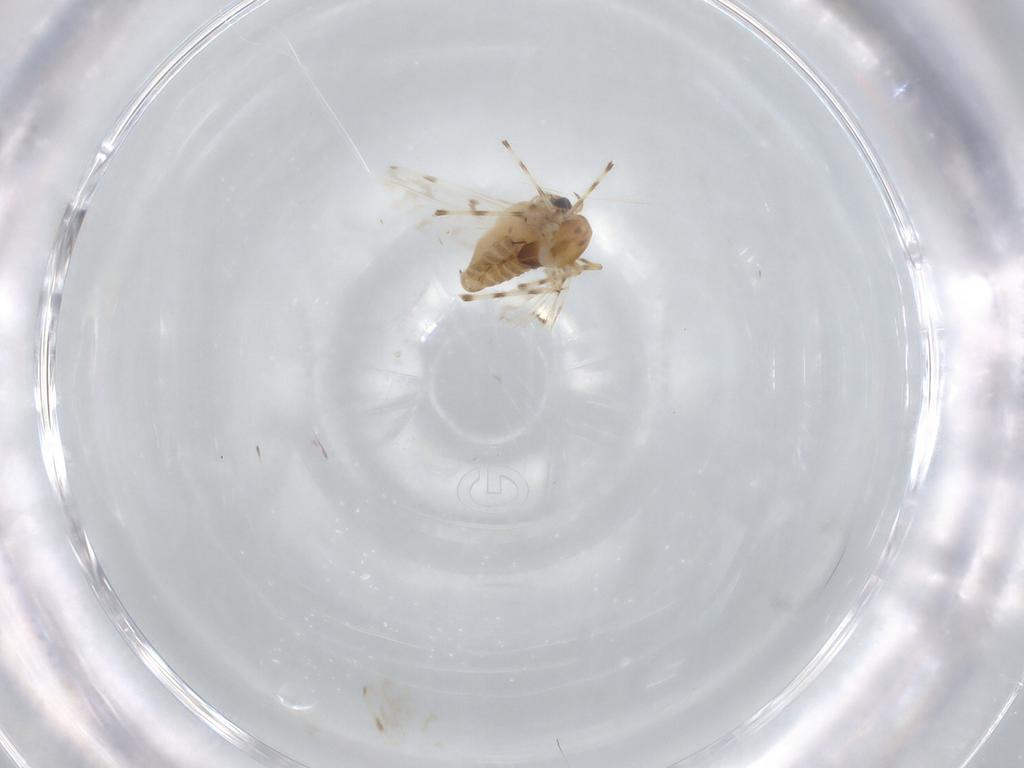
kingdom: Animalia
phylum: Arthropoda
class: Insecta
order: Diptera
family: Chironomidae
